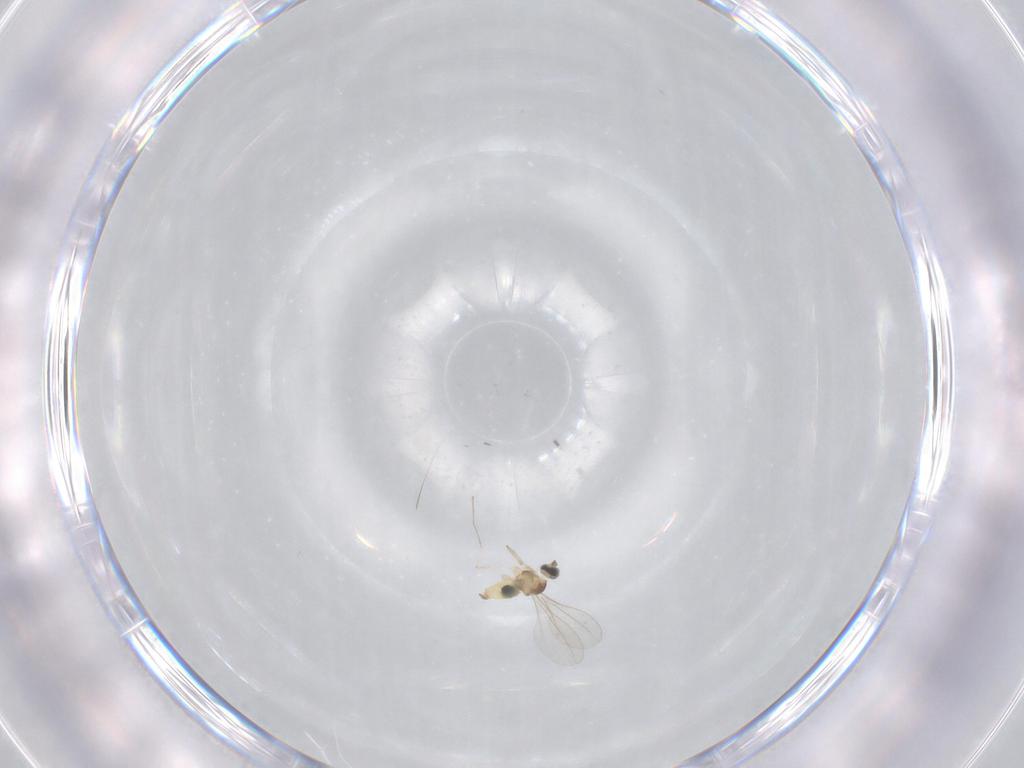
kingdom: Animalia
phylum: Arthropoda
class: Insecta
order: Diptera
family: Cecidomyiidae
